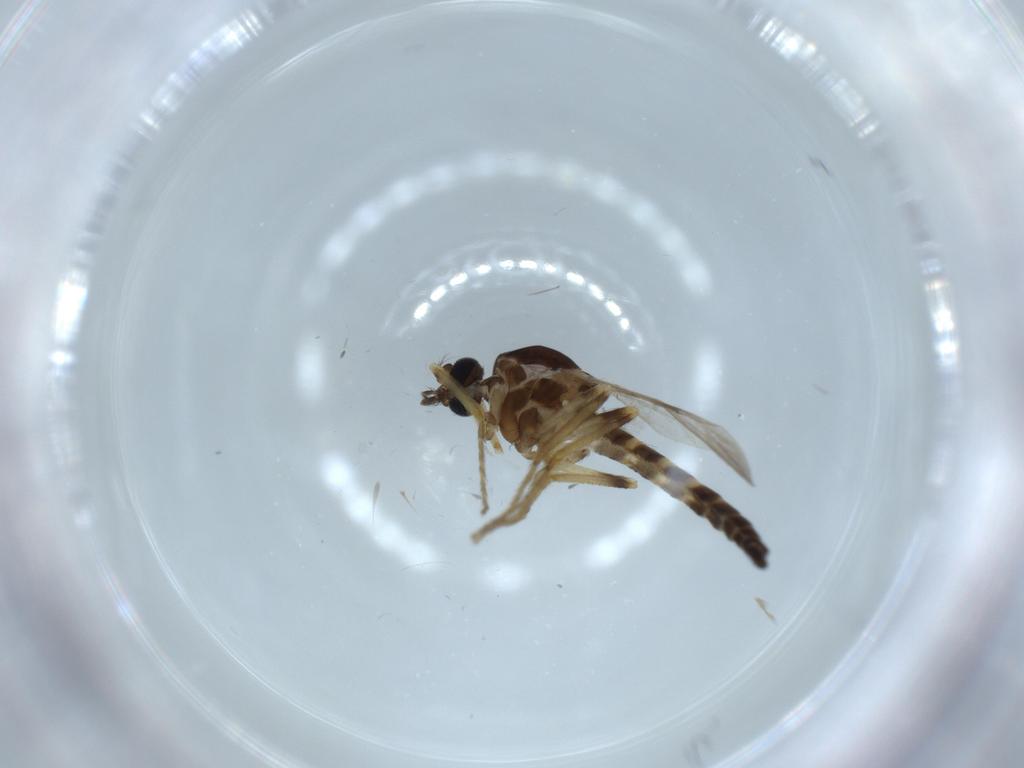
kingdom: Animalia
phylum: Arthropoda
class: Insecta
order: Diptera
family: Ceratopogonidae
